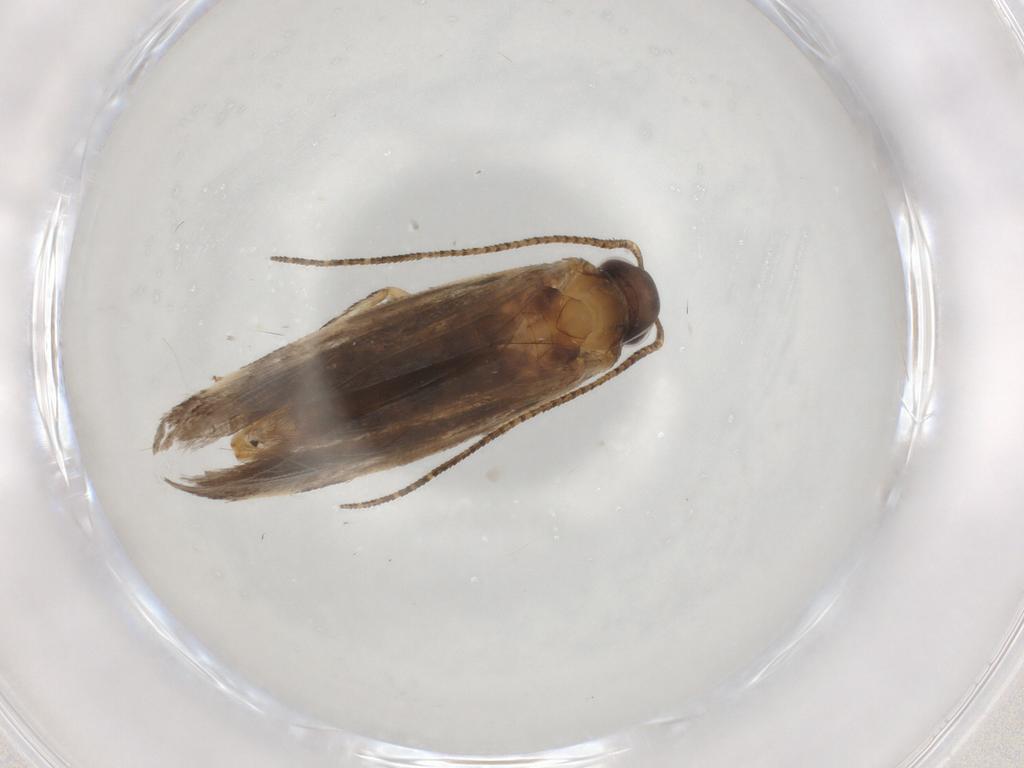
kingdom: Animalia
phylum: Arthropoda
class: Insecta
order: Lepidoptera
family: Gelechiidae
